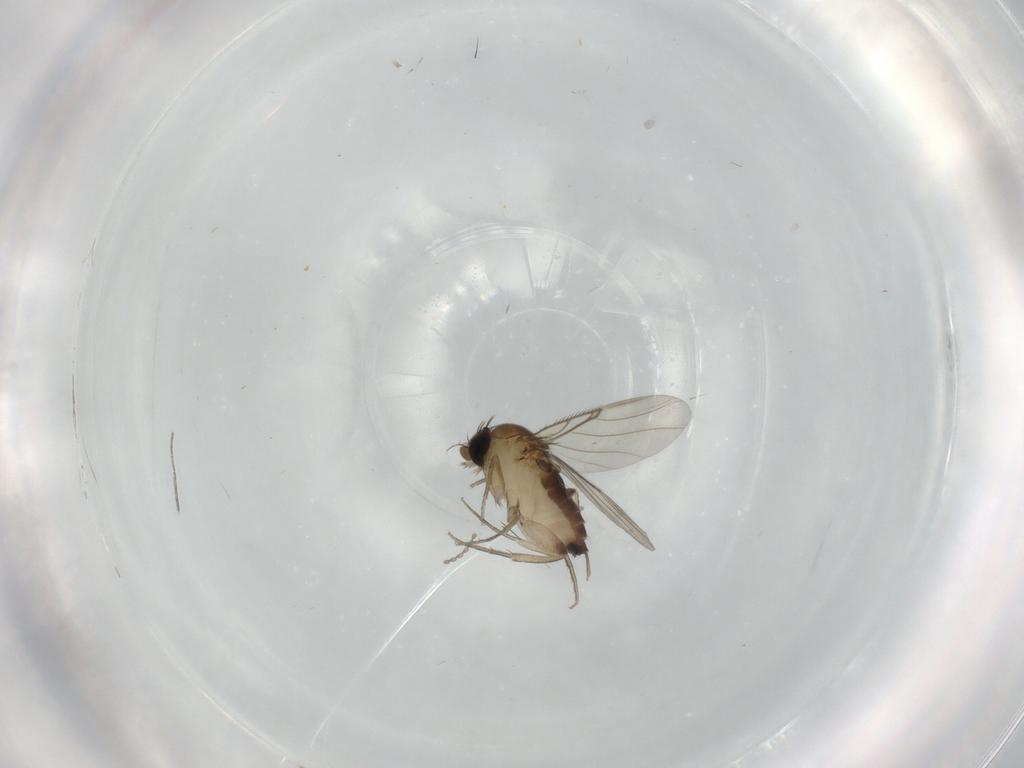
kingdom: Animalia
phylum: Arthropoda
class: Insecta
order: Diptera
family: Phoridae
